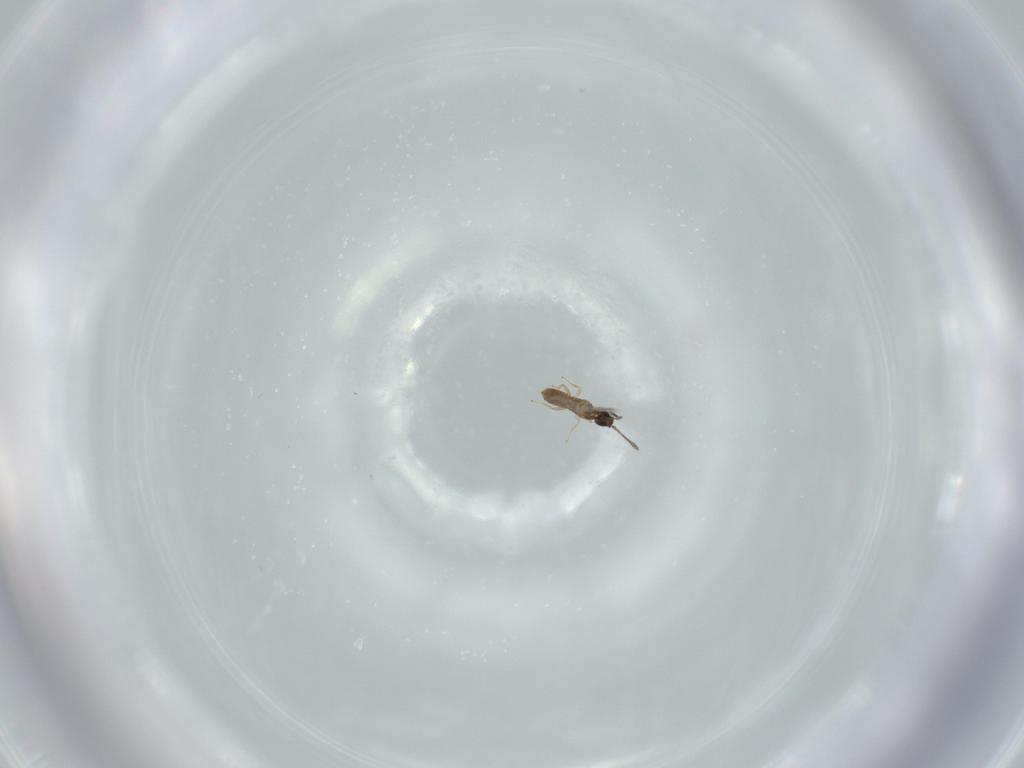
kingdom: Animalia
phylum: Arthropoda
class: Insecta
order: Hymenoptera
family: Mymaridae
